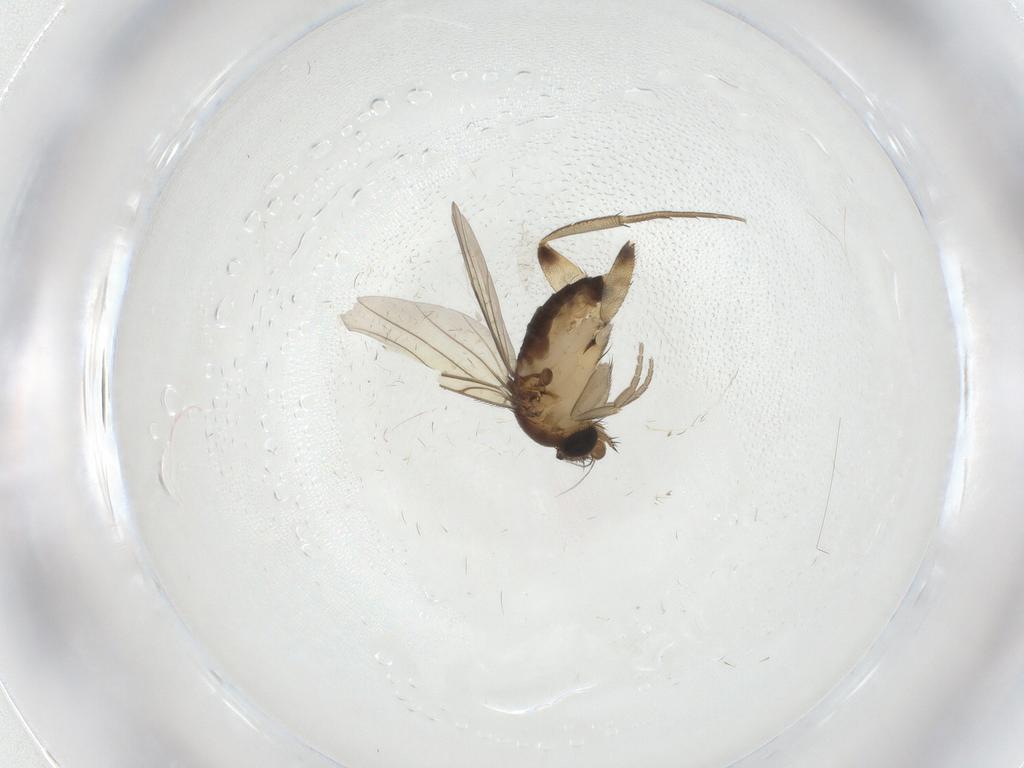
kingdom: Animalia
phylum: Arthropoda
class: Insecta
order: Diptera
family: Phoridae
